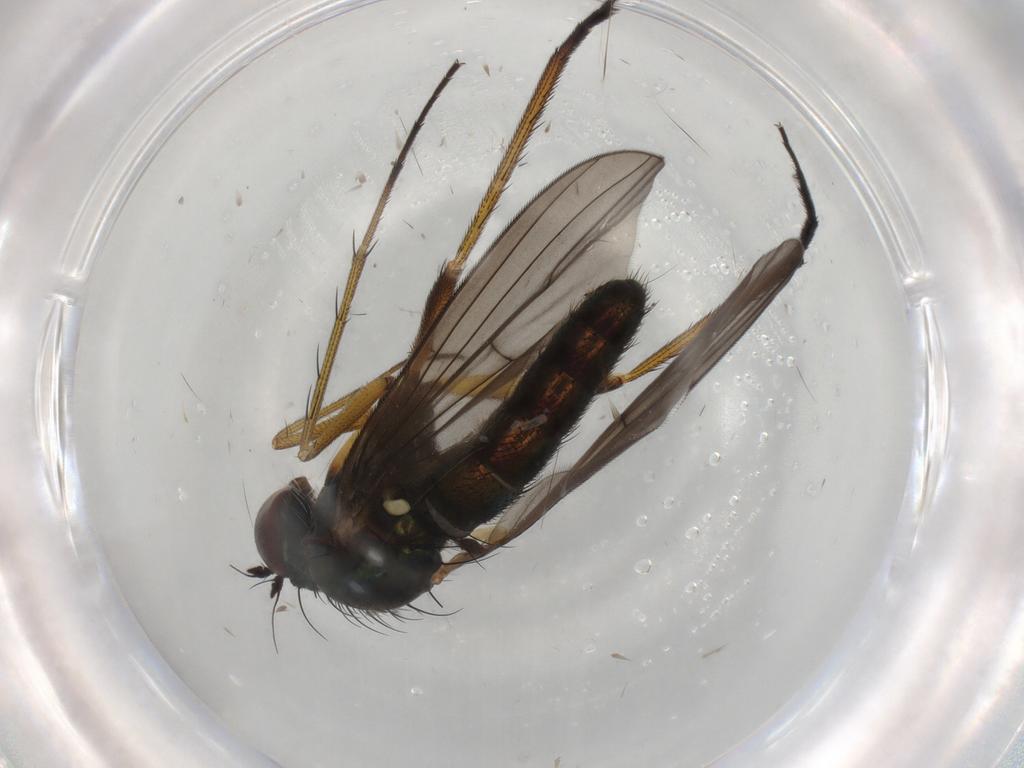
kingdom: Animalia
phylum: Arthropoda
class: Insecta
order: Diptera
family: Dolichopodidae
